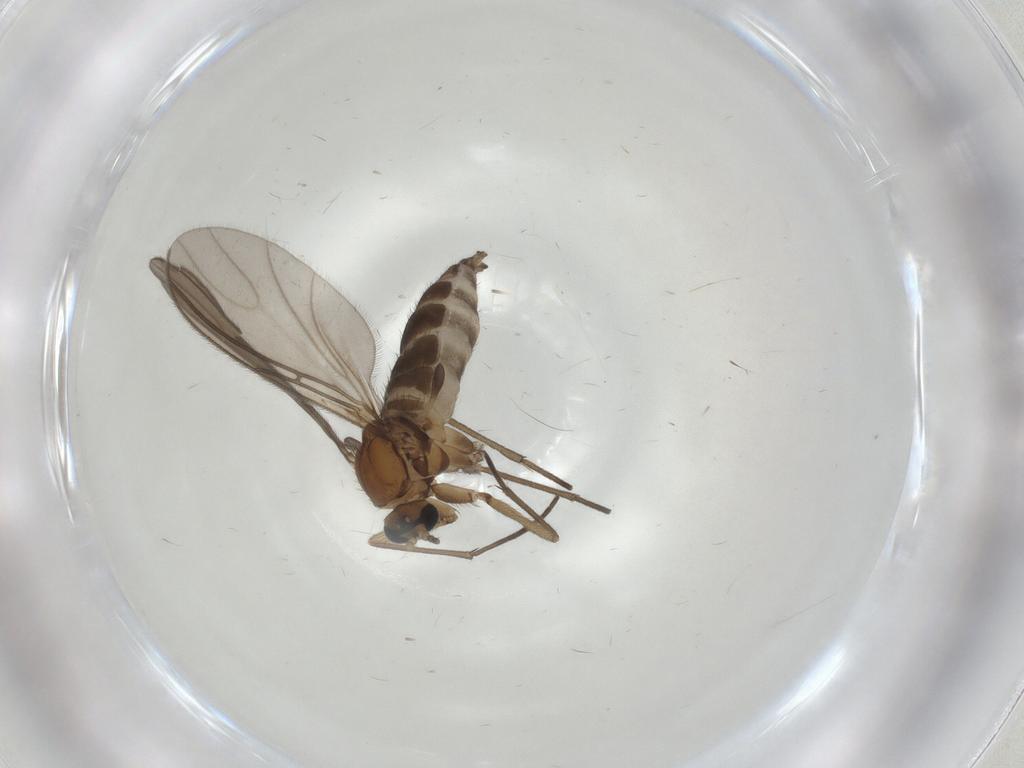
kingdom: Animalia
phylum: Arthropoda
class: Insecta
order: Diptera
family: Sciaridae
